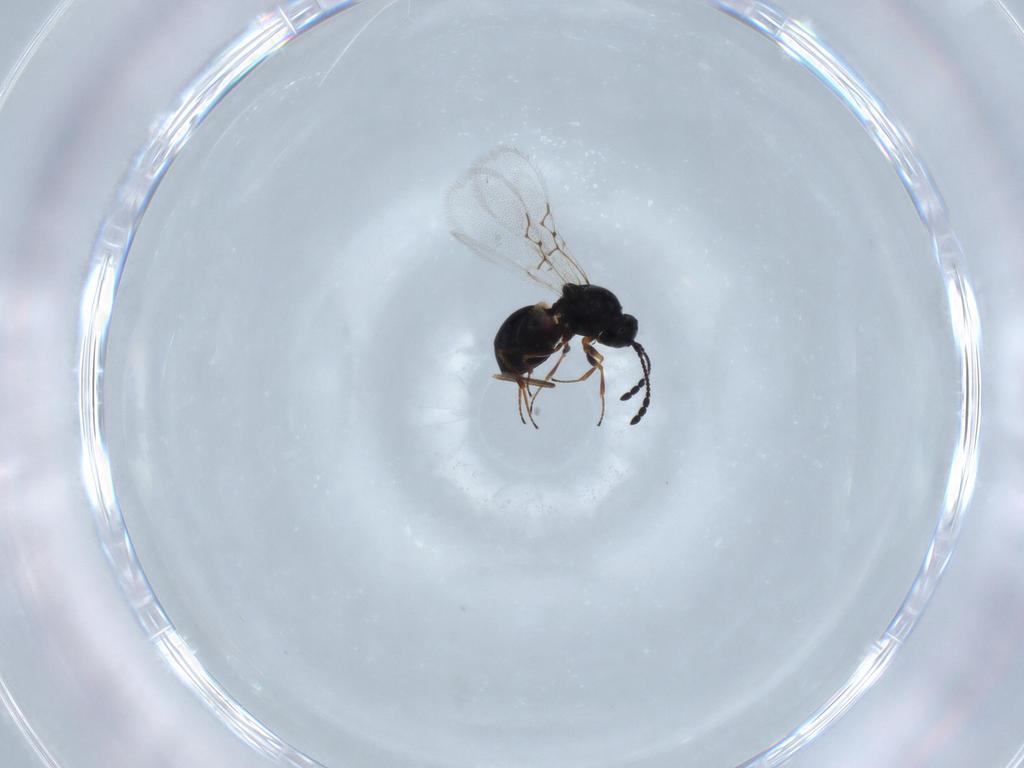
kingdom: Animalia
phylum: Arthropoda
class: Insecta
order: Hymenoptera
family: Figitidae
